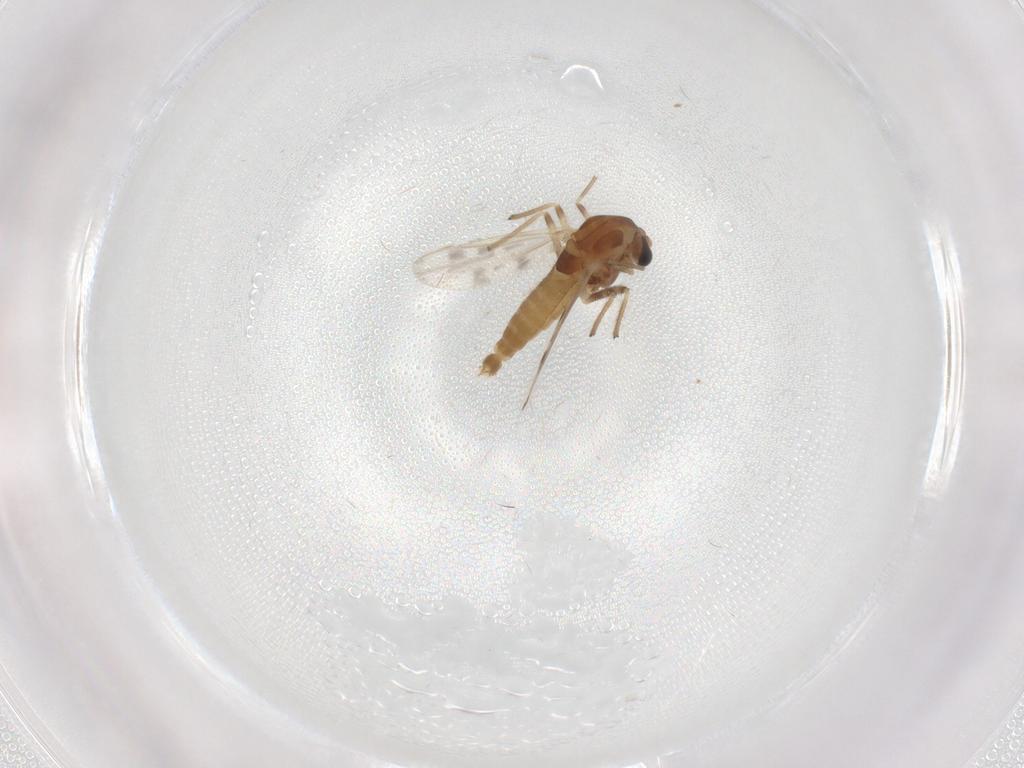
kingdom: Animalia
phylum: Arthropoda
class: Insecta
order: Diptera
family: Chironomidae
